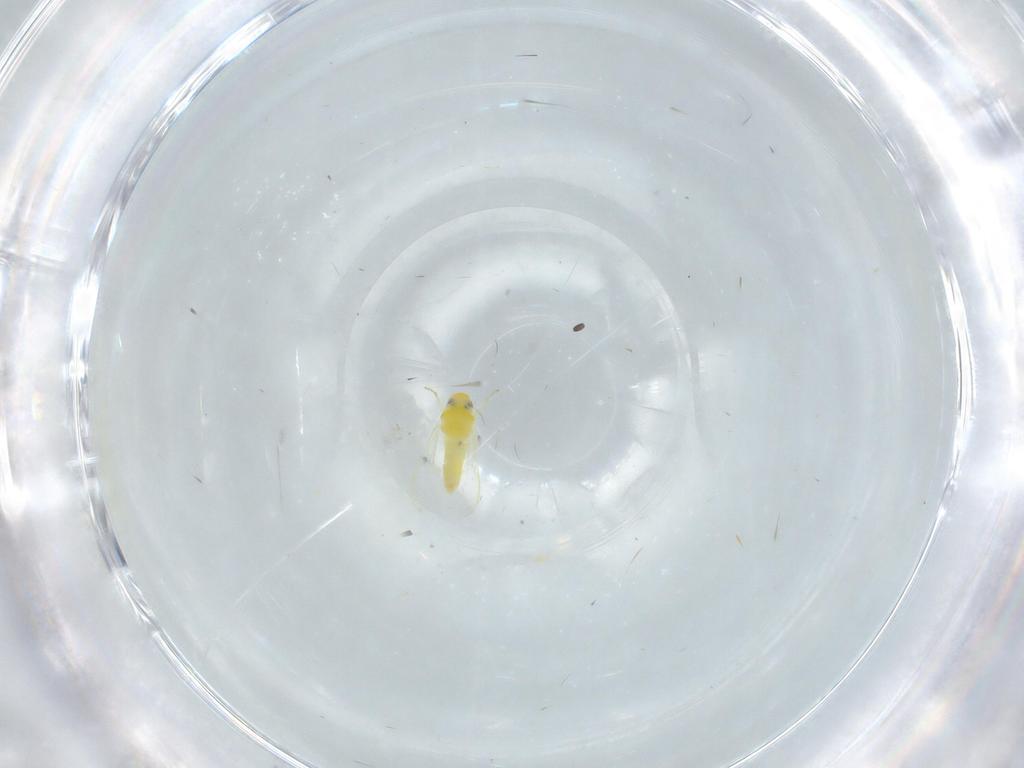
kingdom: Animalia
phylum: Arthropoda
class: Insecta
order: Hemiptera
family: Aleyrodidae
